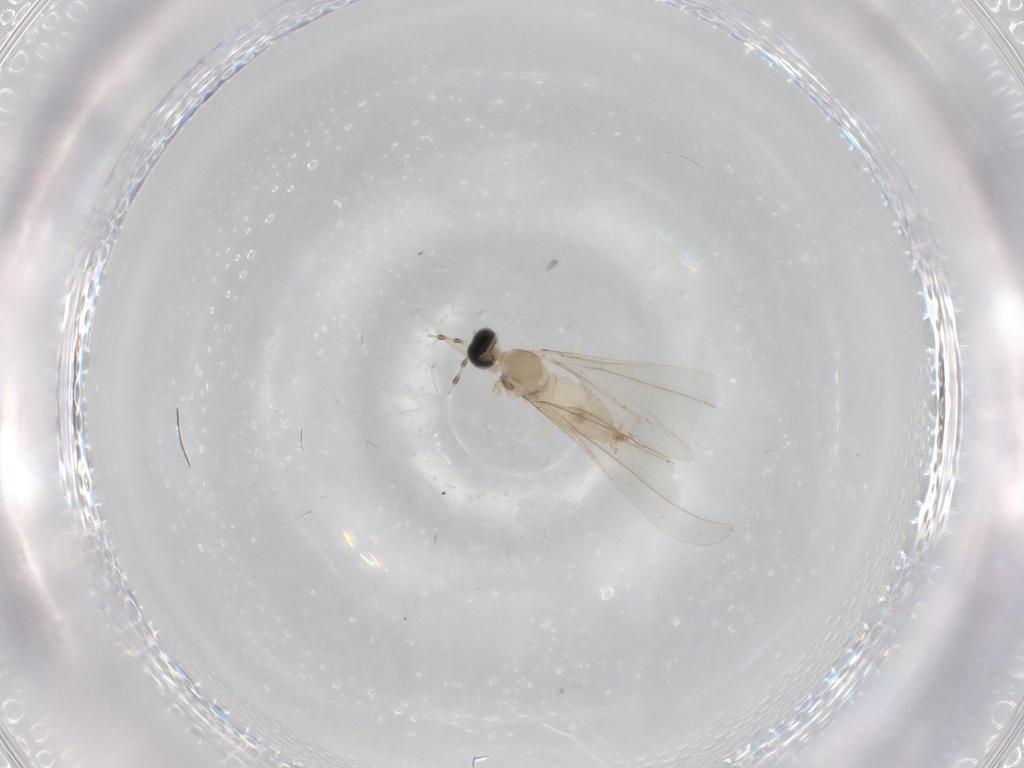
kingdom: Animalia
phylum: Arthropoda
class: Insecta
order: Diptera
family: Cecidomyiidae
